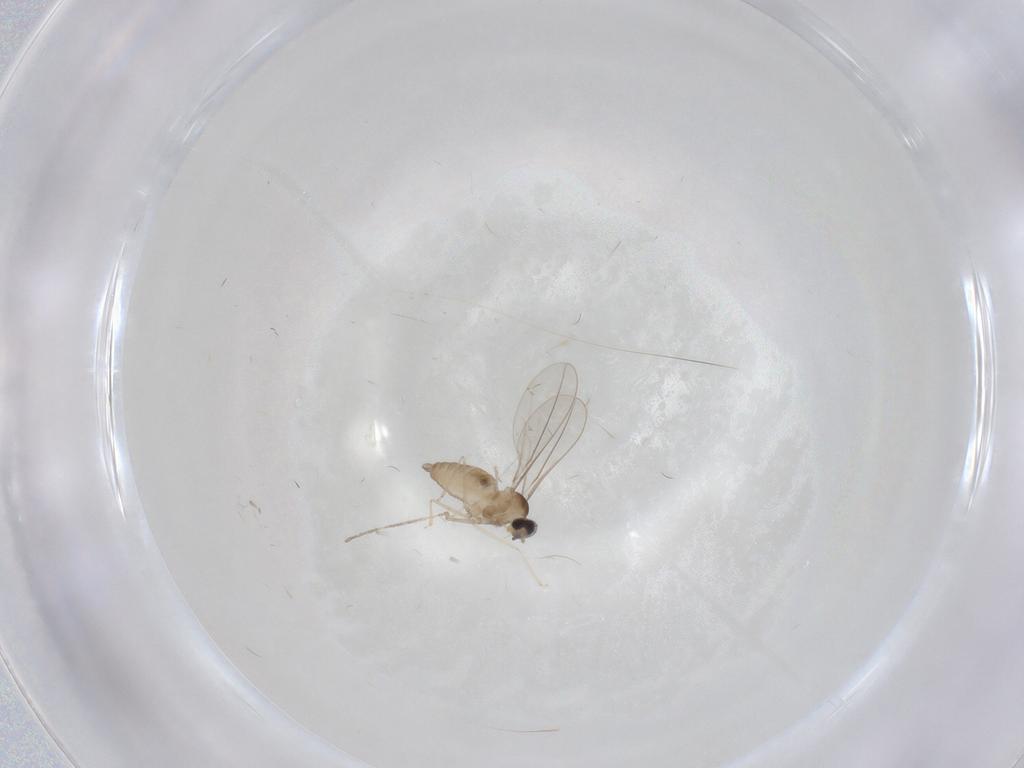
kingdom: Animalia
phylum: Arthropoda
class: Insecta
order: Diptera
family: Cecidomyiidae
